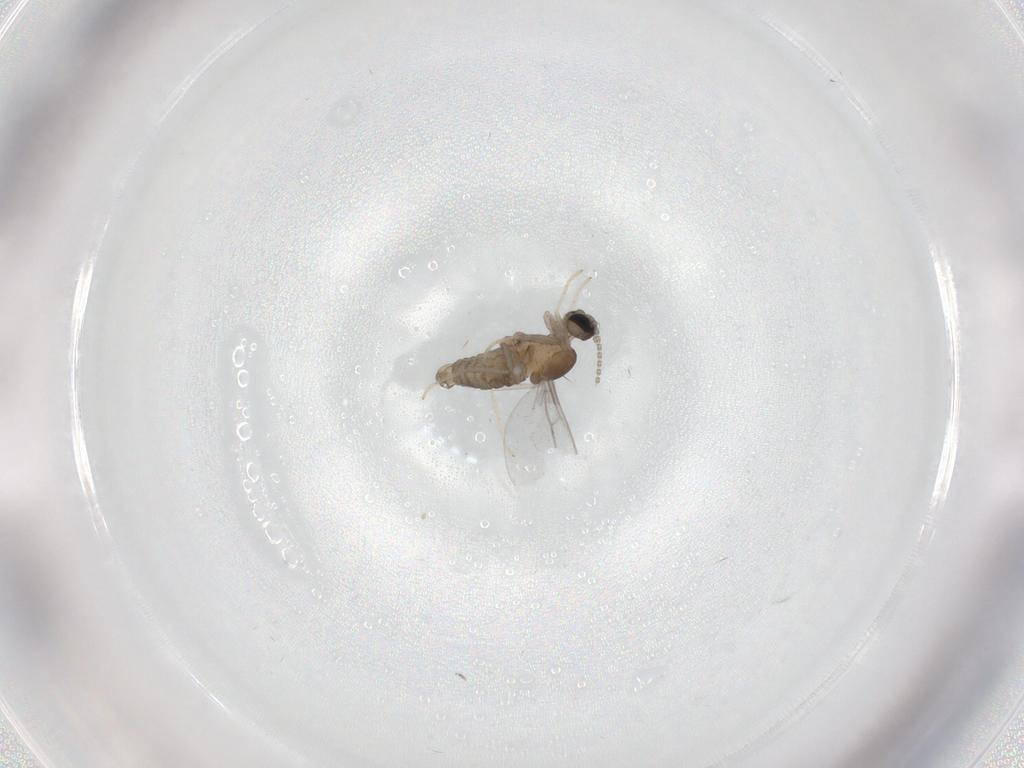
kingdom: Animalia
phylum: Arthropoda
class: Insecta
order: Diptera
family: Cecidomyiidae
